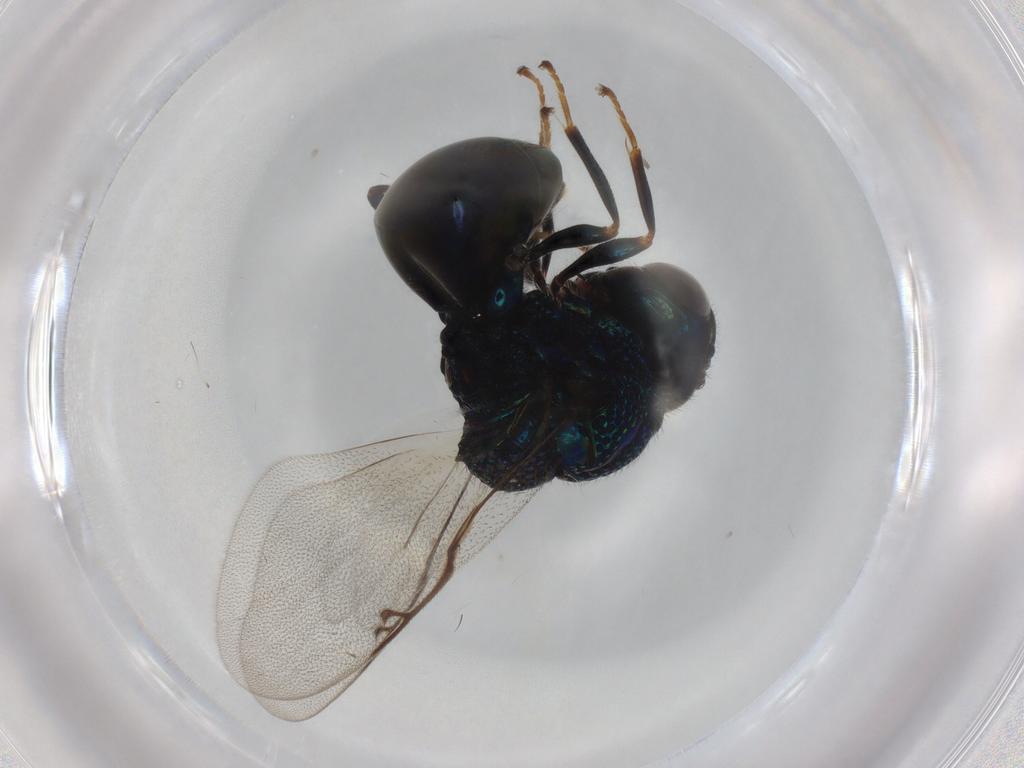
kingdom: Animalia
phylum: Arthropoda
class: Insecta
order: Hymenoptera
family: Perilampidae
